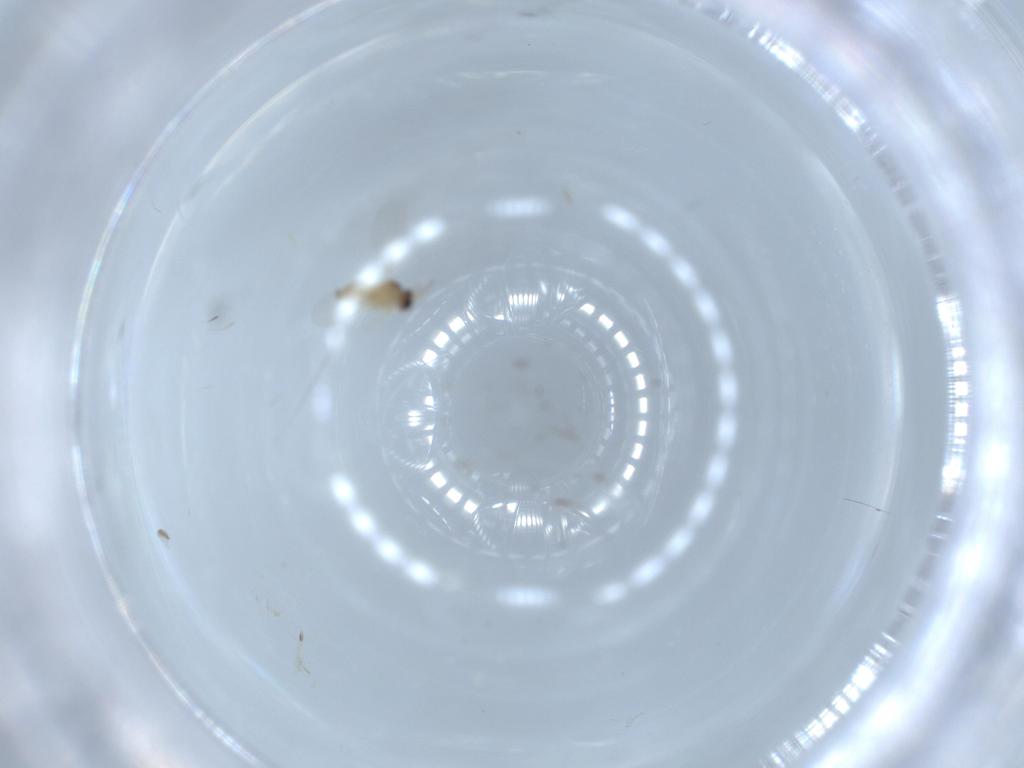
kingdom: Animalia
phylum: Arthropoda
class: Insecta
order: Diptera
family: Cecidomyiidae
